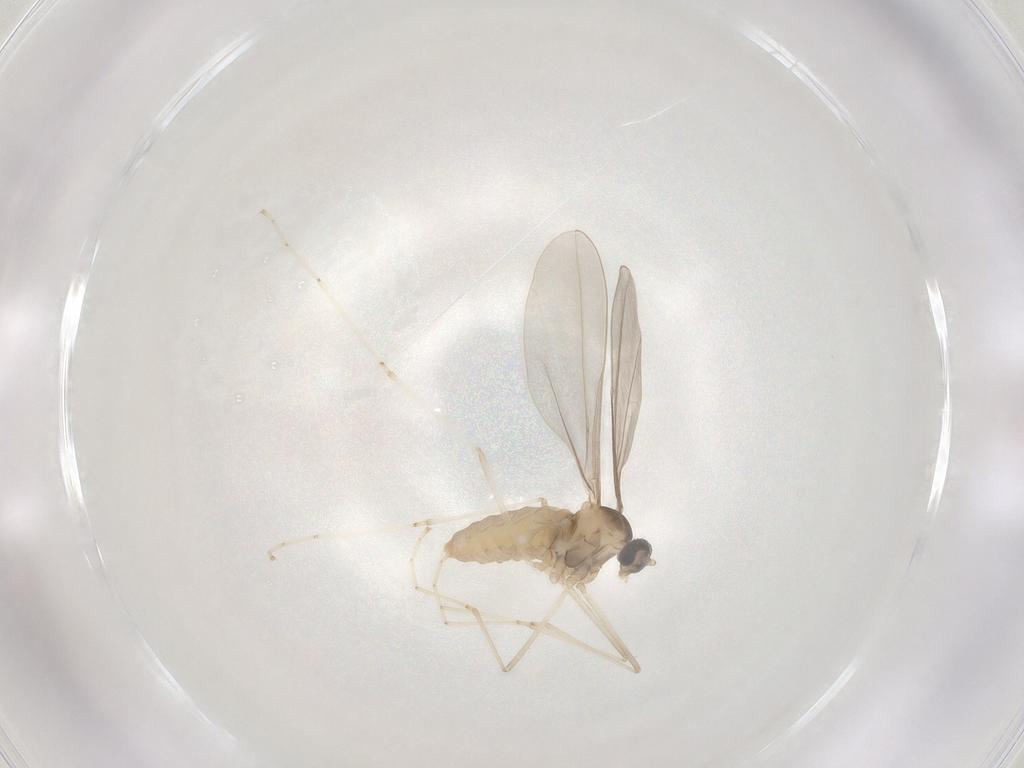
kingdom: Animalia
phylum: Arthropoda
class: Insecta
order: Diptera
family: Cecidomyiidae
